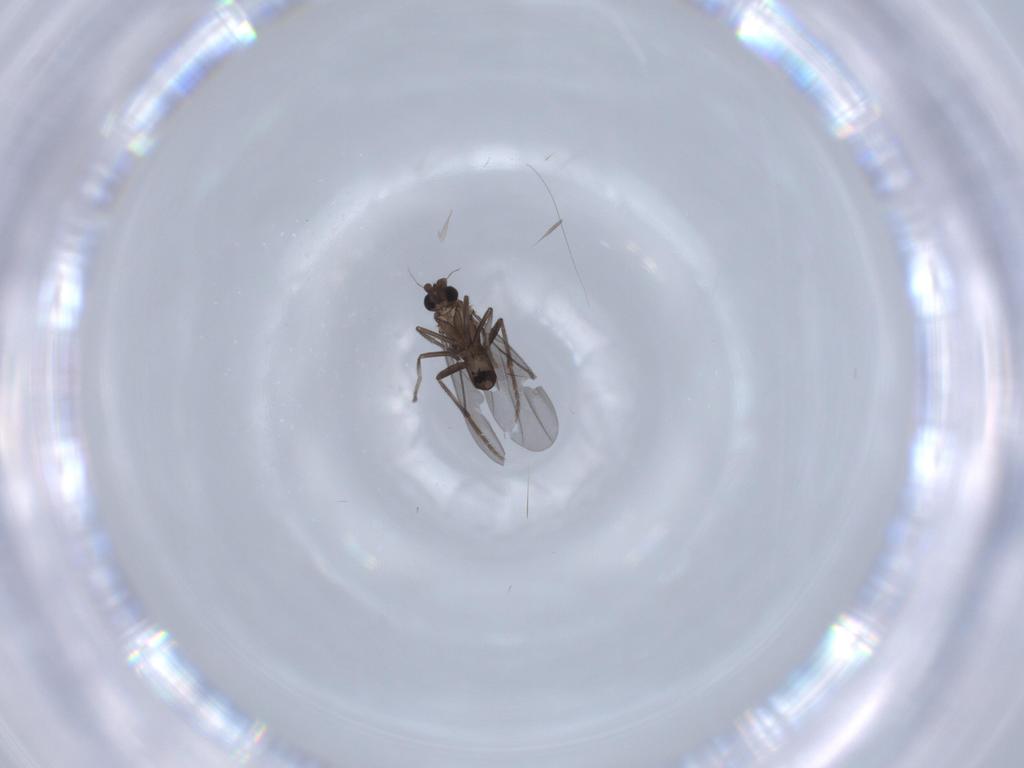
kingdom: Animalia
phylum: Arthropoda
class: Insecta
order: Diptera
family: Phoridae
